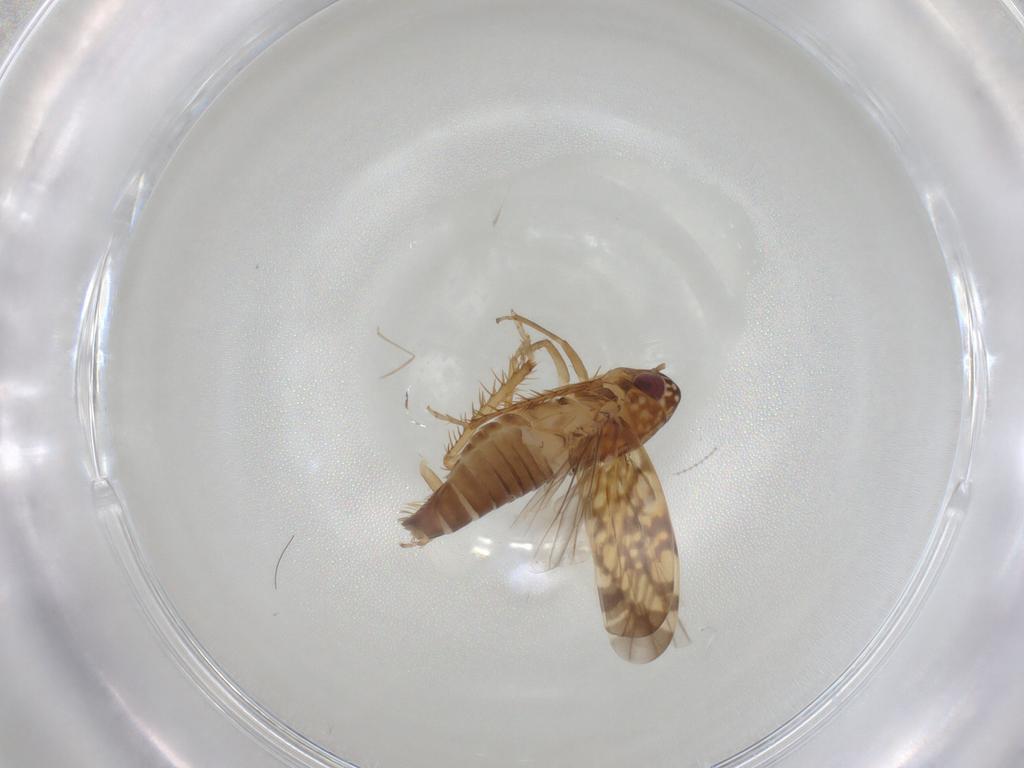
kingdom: Animalia
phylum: Arthropoda
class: Insecta
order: Hemiptera
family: Cicadellidae
